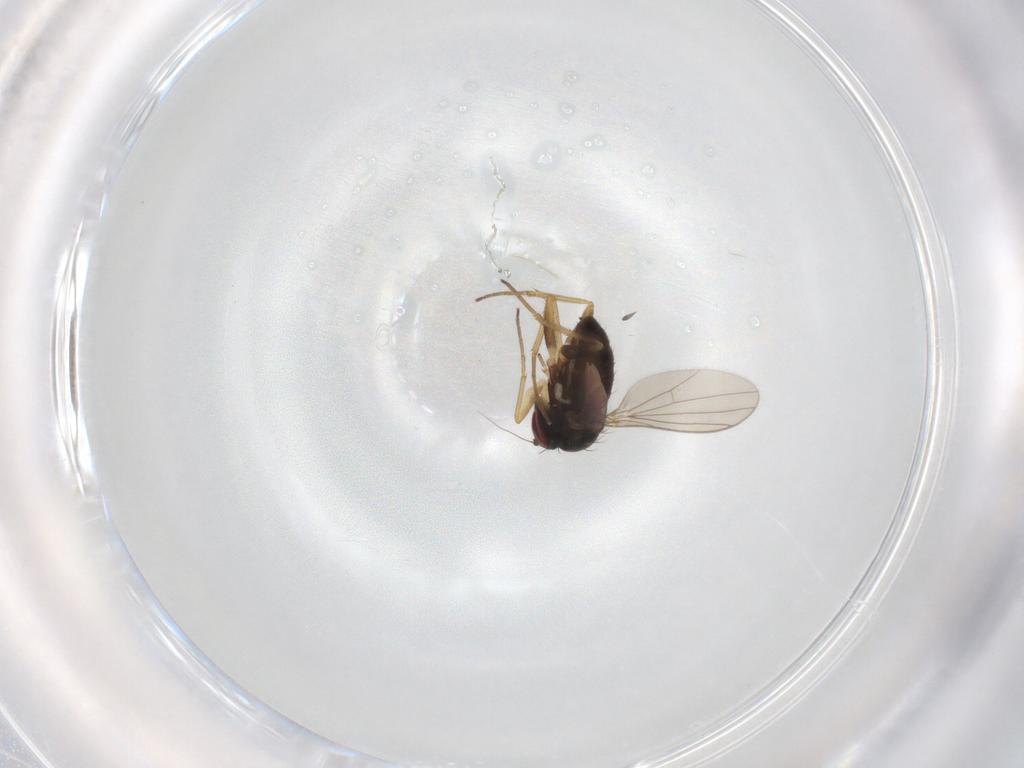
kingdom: Animalia
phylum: Arthropoda
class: Insecta
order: Diptera
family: Dolichopodidae
